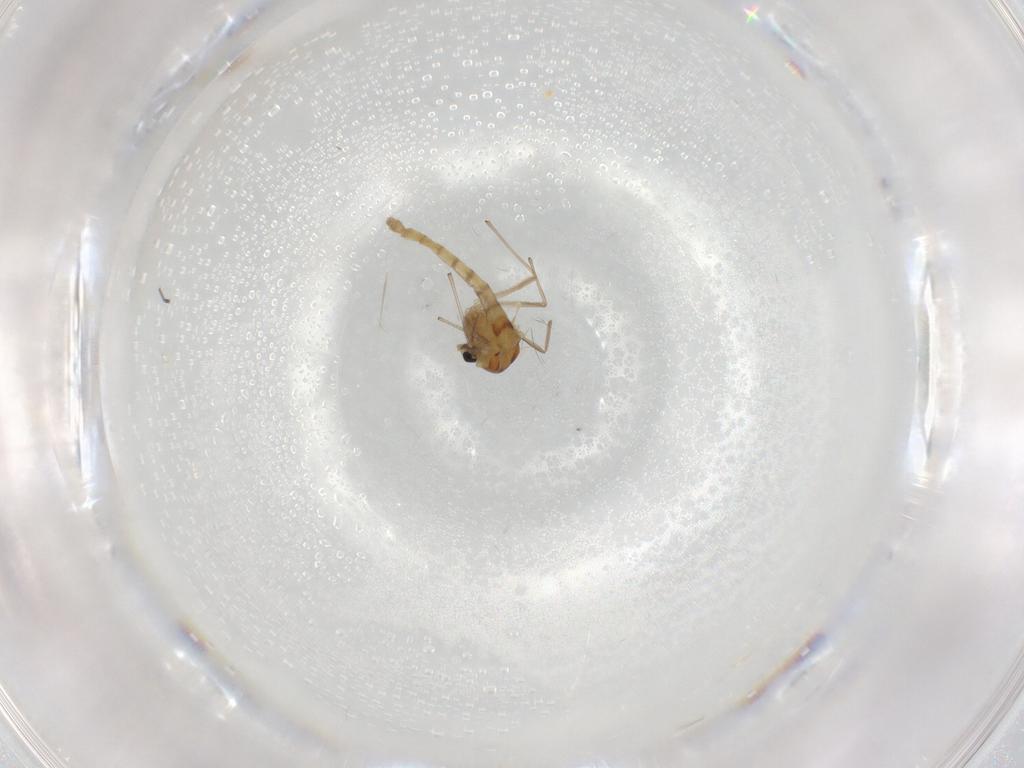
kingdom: Animalia
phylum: Arthropoda
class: Insecta
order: Diptera
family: Chironomidae
